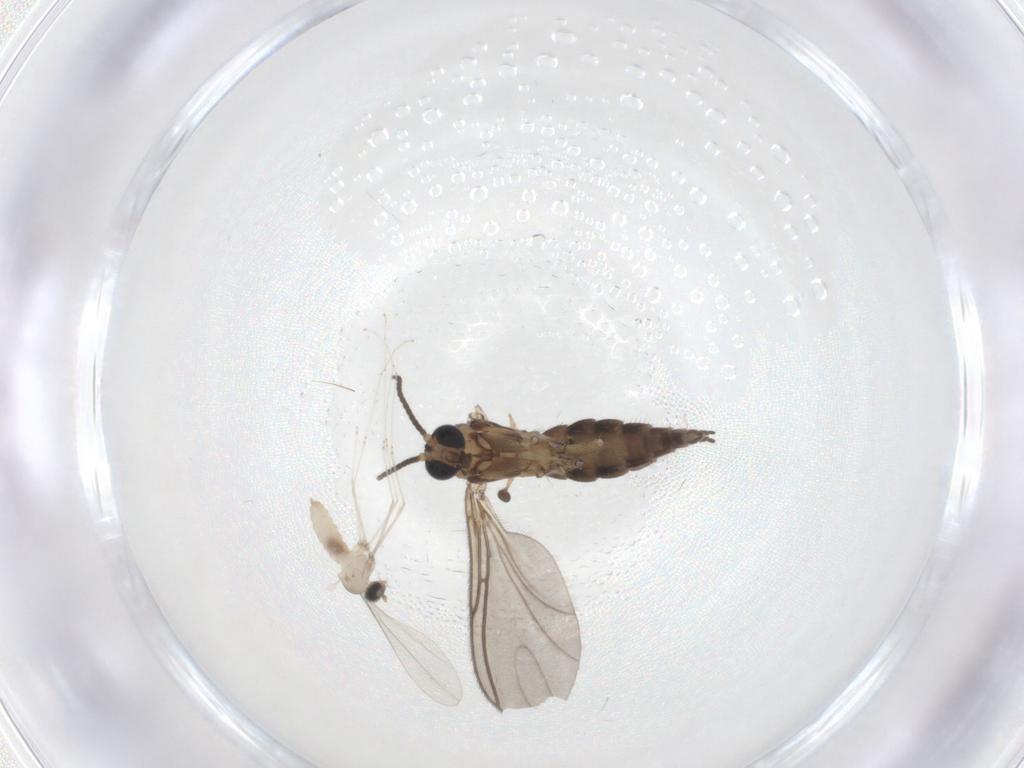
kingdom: Animalia
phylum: Arthropoda
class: Insecta
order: Diptera
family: Sciaridae
